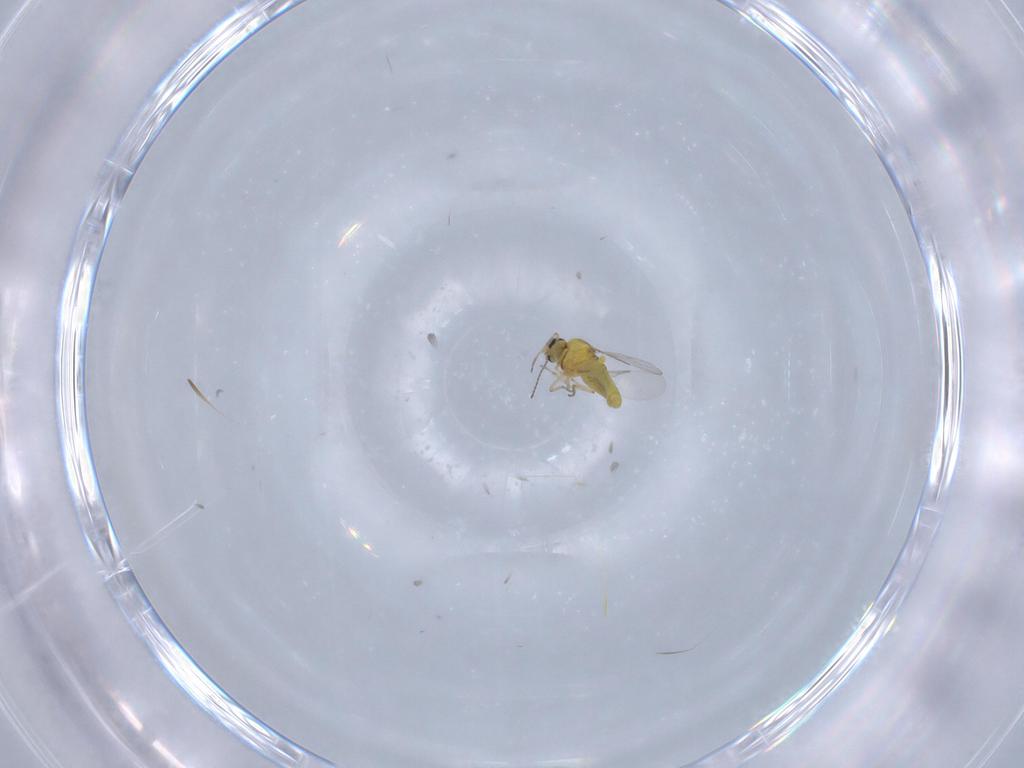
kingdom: Animalia
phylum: Arthropoda
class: Insecta
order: Diptera
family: Ceratopogonidae
